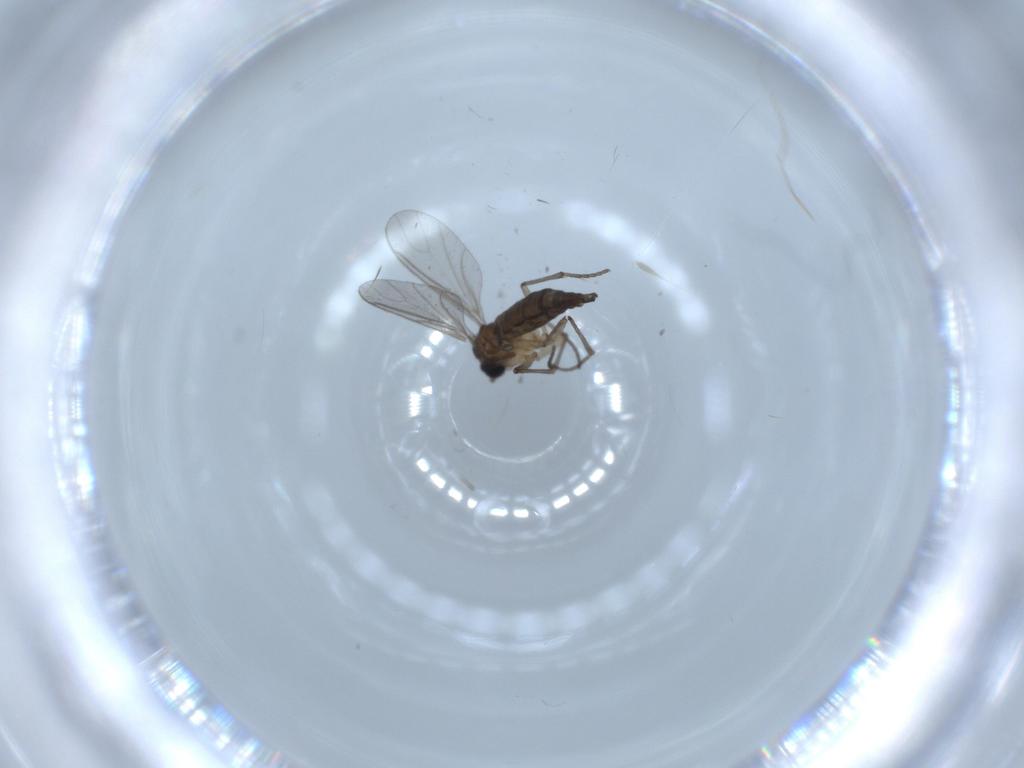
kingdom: Animalia
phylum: Arthropoda
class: Insecta
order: Diptera
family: Sciaridae
